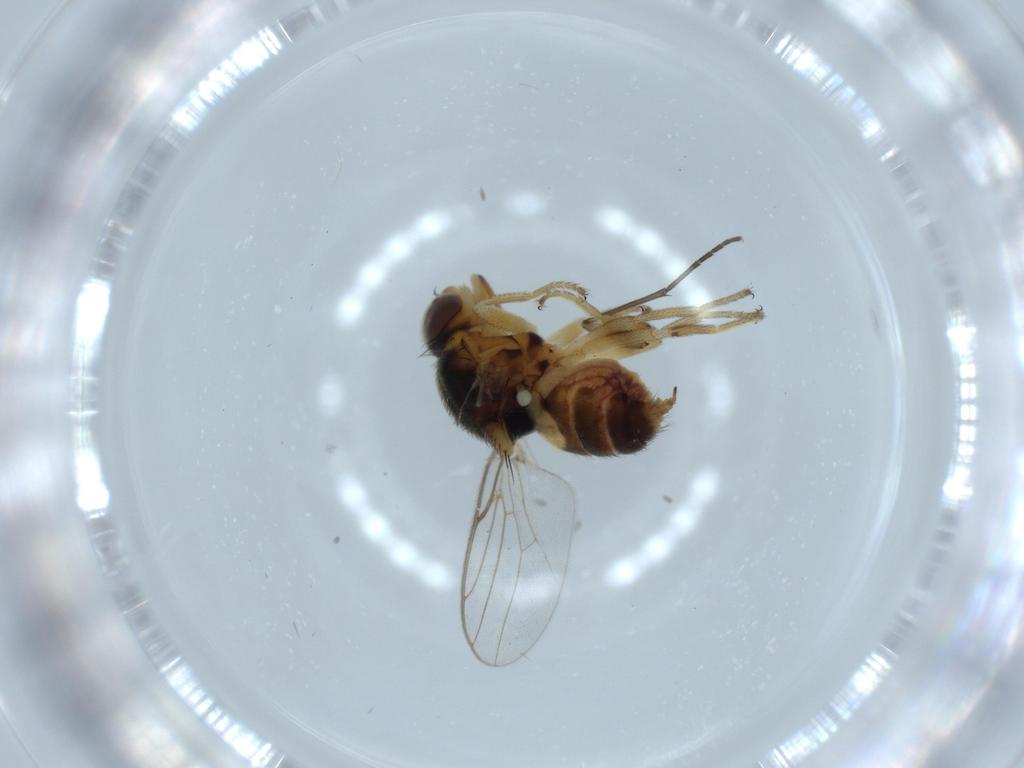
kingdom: Animalia
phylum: Arthropoda
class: Insecta
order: Diptera
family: Chloropidae
